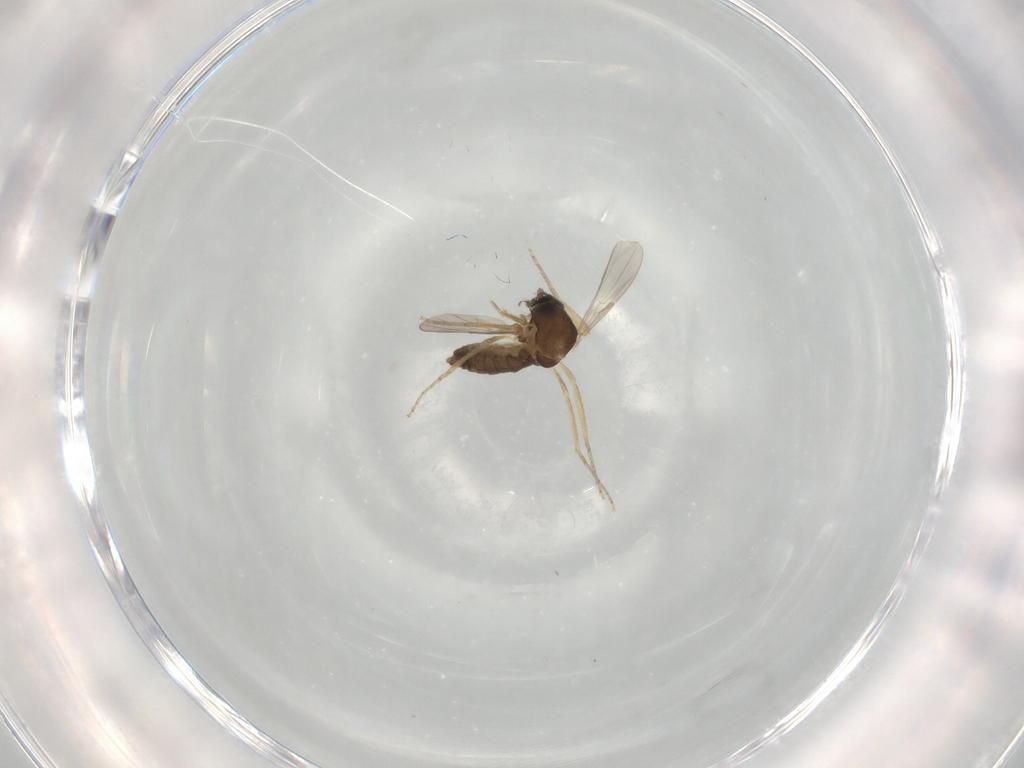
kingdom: Animalia
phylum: Arthropoda
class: Insecta
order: Diptera
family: Ceratopogonidae
